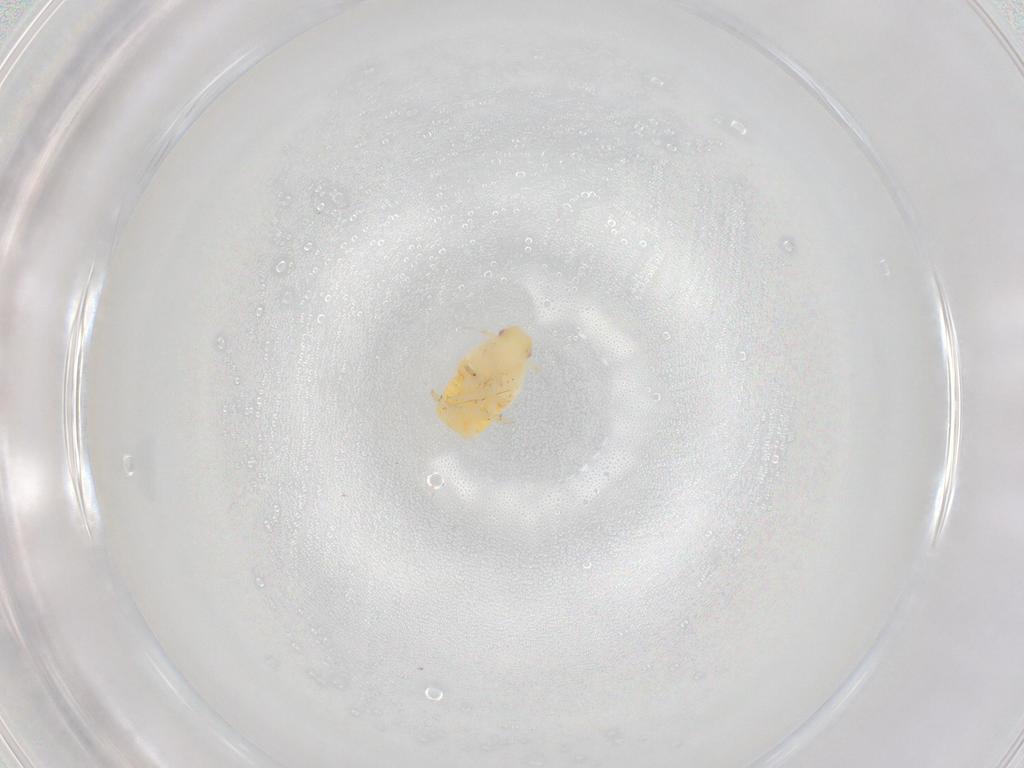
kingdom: Animalia
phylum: Arthropoda
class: Insecta
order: Hemiptera
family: Flatidae
